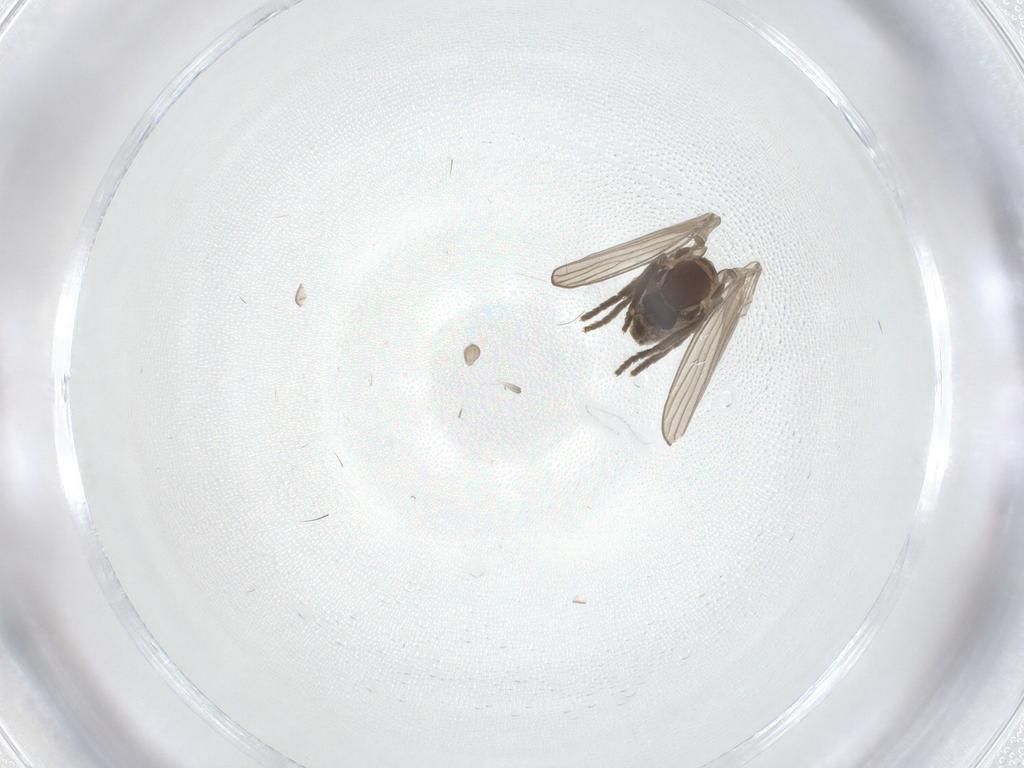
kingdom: Animalia
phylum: Arthropoda
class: Insecta
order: Diptera
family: Psychodidae
